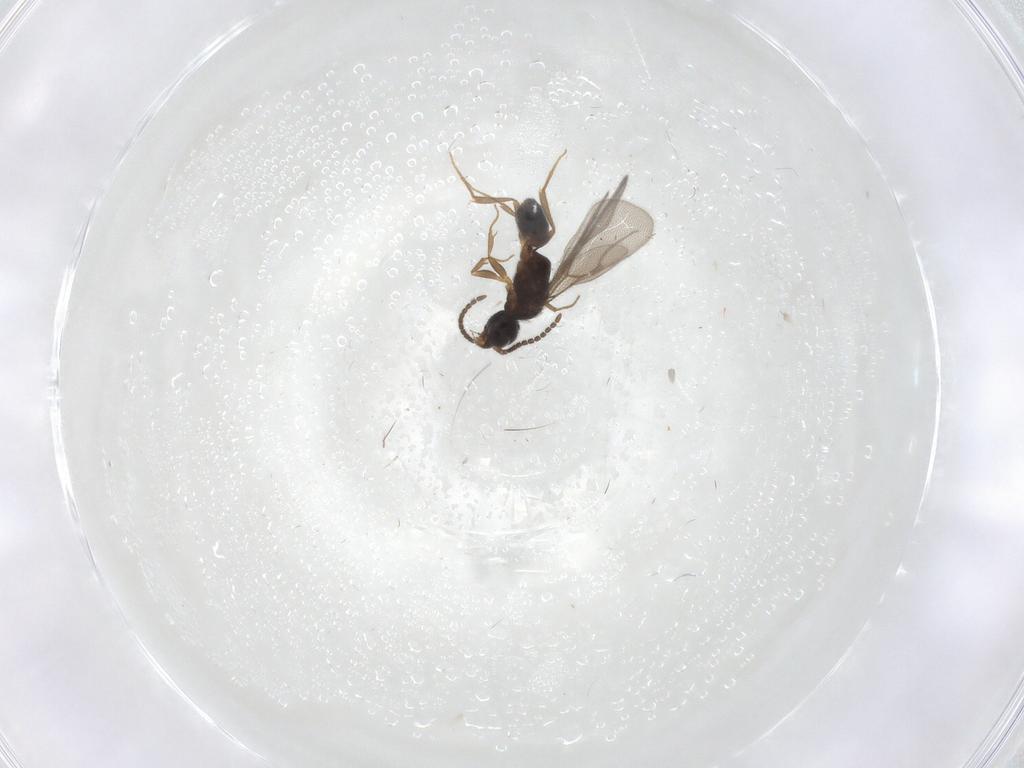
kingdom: Animalia
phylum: Arthropoda
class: Insecta
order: Hymenoptera
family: Bethylidae
